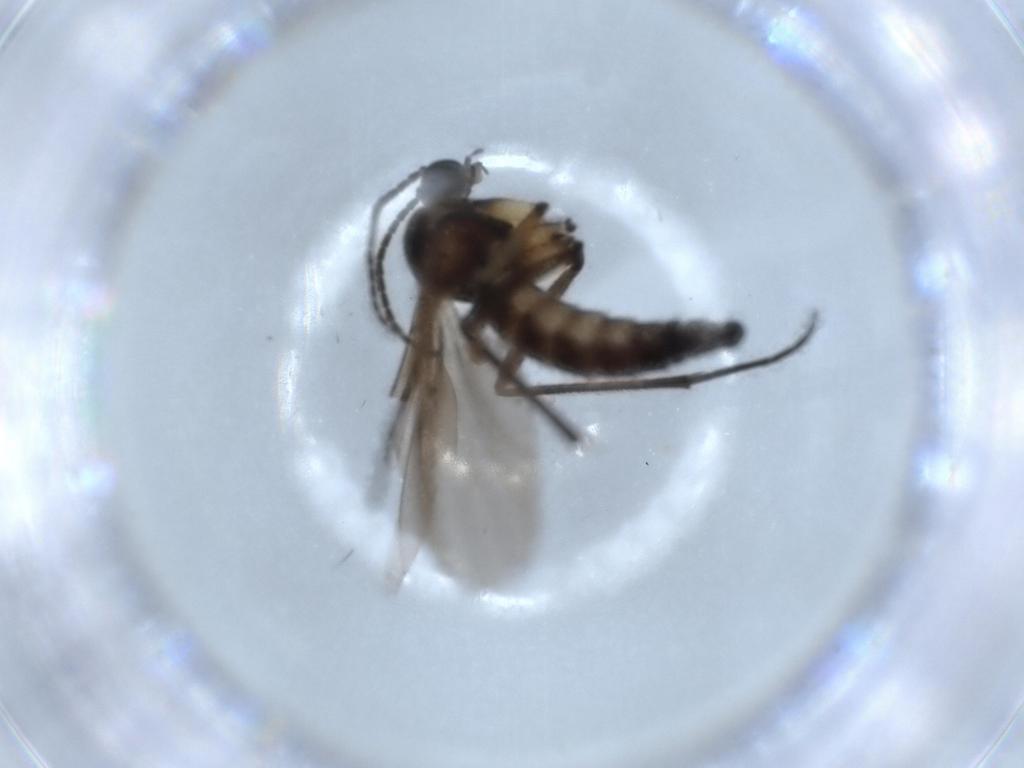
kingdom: Animalia
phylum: Arthropoda
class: Insecta
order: Diptera
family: Sciaridae
